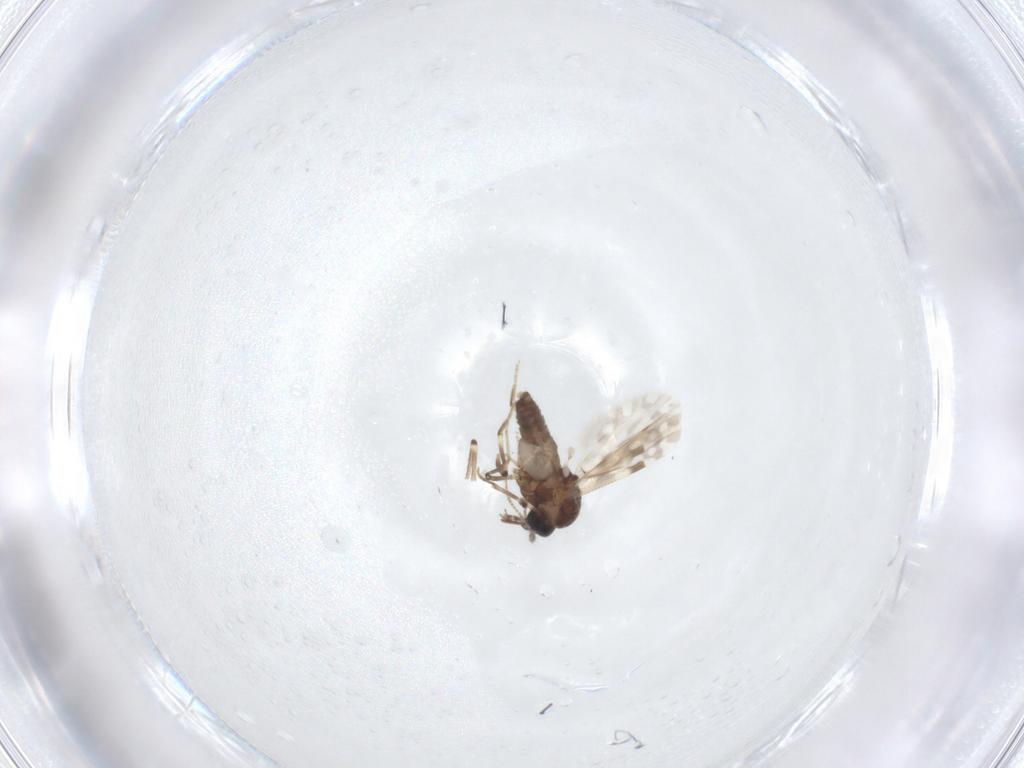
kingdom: Animalia
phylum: Arthropoda
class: Insecta
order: Diptera
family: Ceratopogonidae
